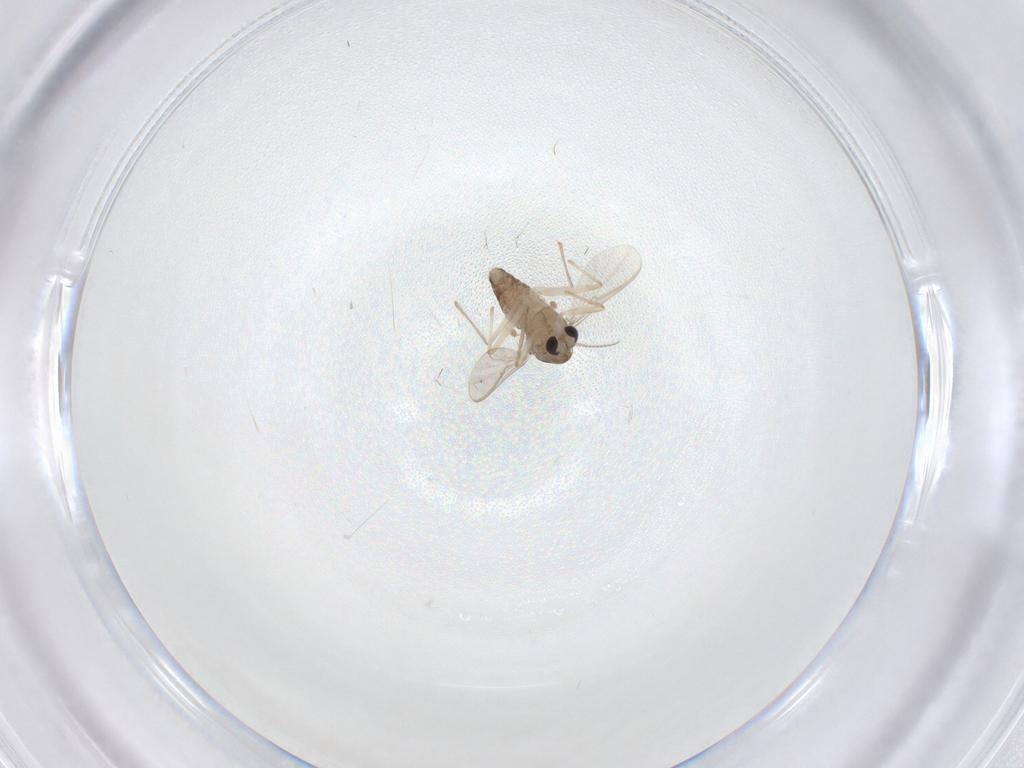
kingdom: Animalia
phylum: Arthropoda
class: Insecta
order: Diptera
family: Chironomidae
